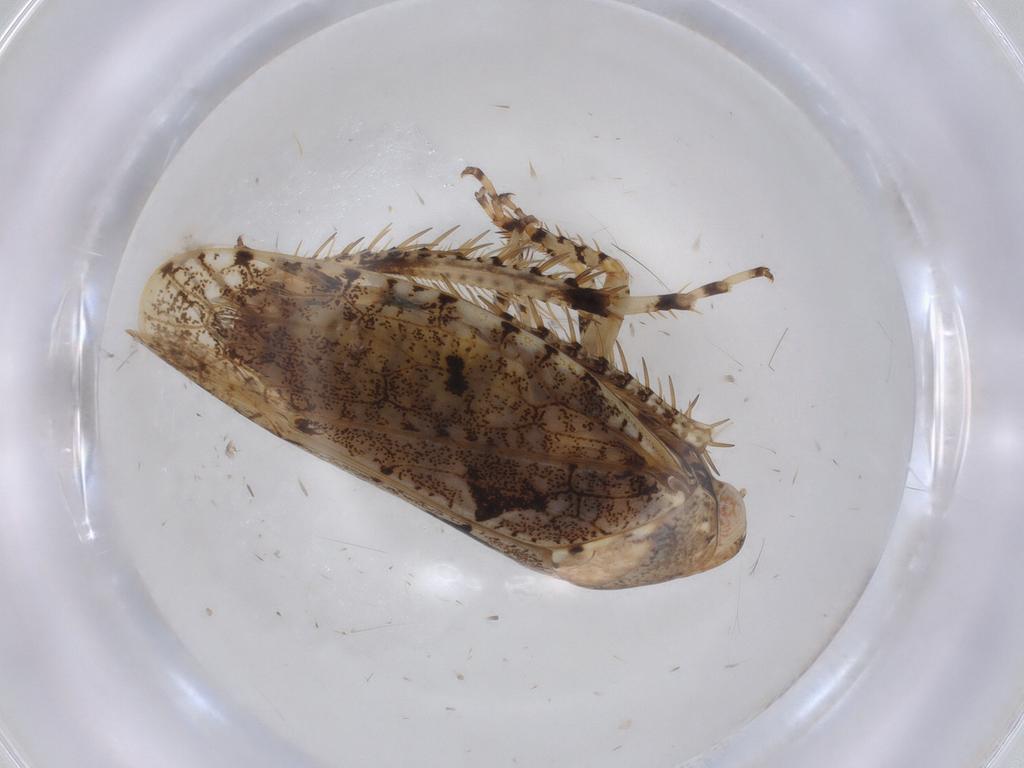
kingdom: Animalia
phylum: Arthropoda
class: Insecta
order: Hemiptera
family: Cicadellidae
